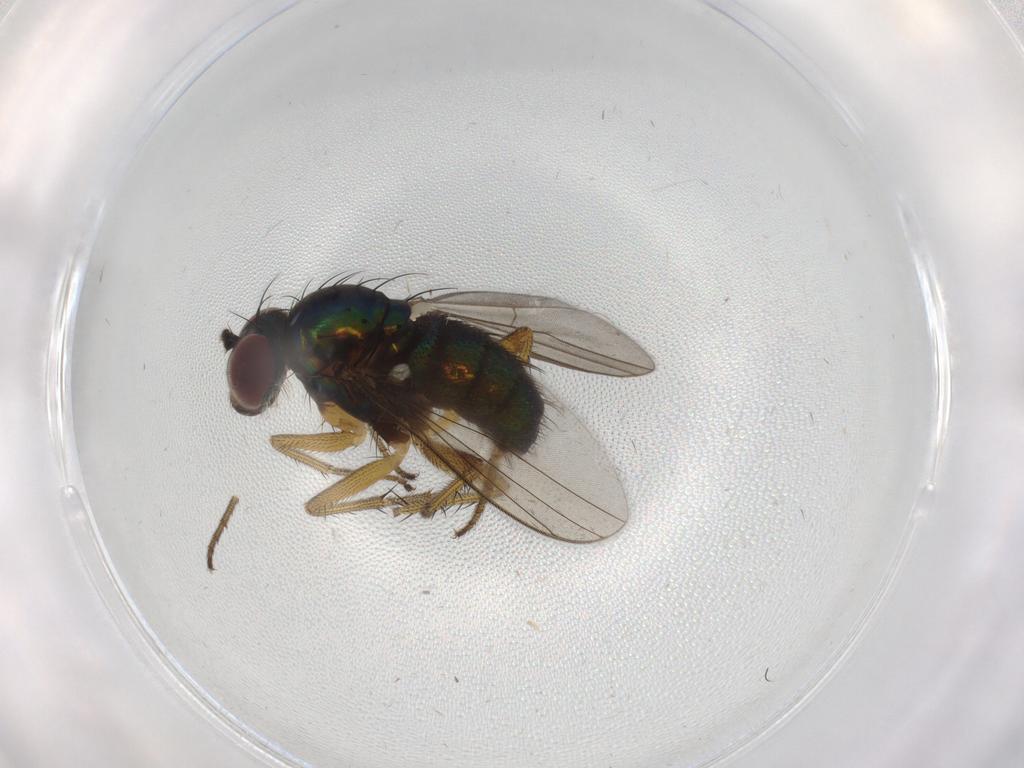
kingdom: Animalia
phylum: Arthropoda
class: Insecta
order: Diptera
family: Dolichopodidae
